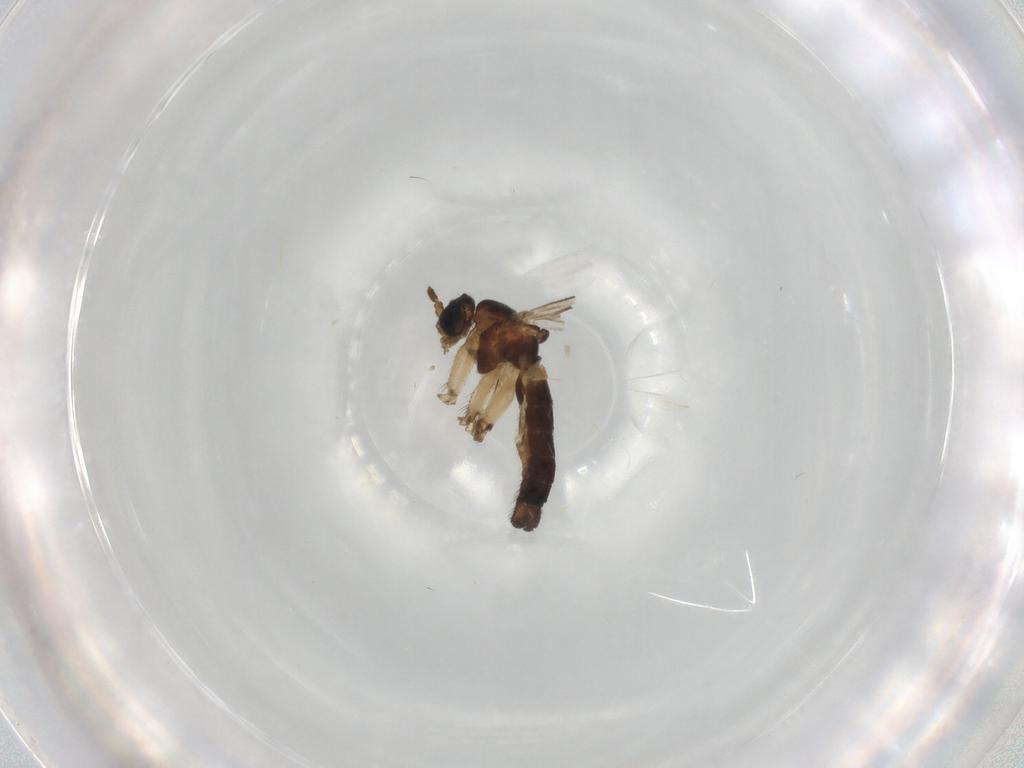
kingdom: Animalia
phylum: Arthropoda
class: Insecta
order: Diptera
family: Sciaridae
